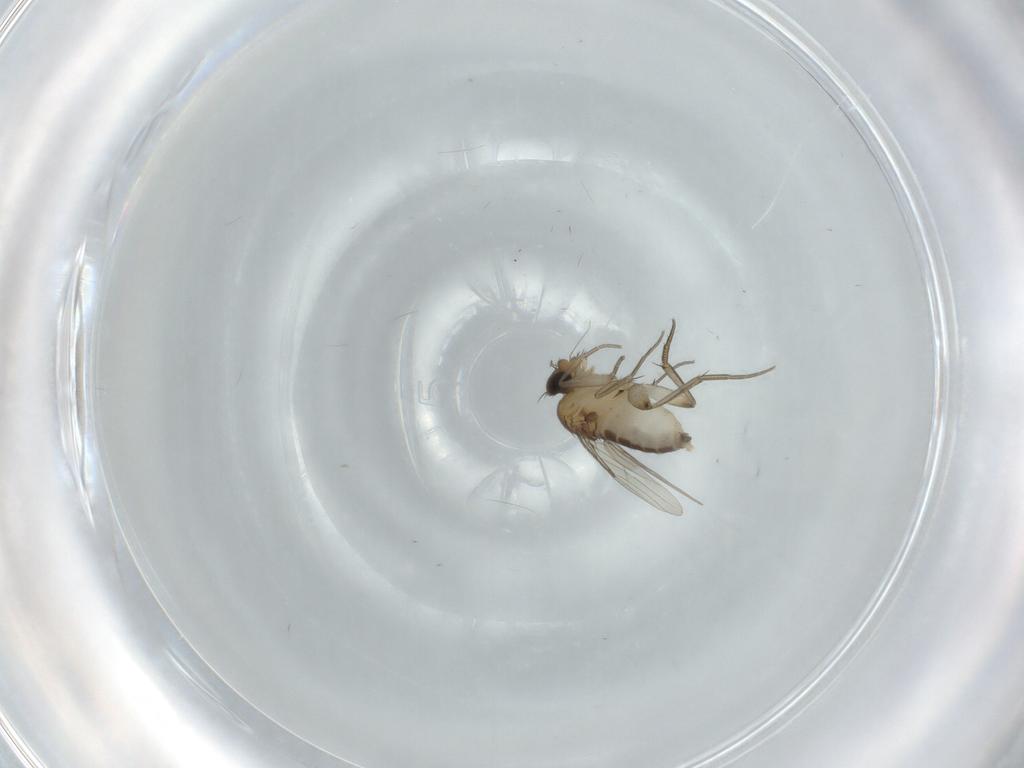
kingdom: Animalia
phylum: Arthropoda
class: Insecta
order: Diptera
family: Phoridae
